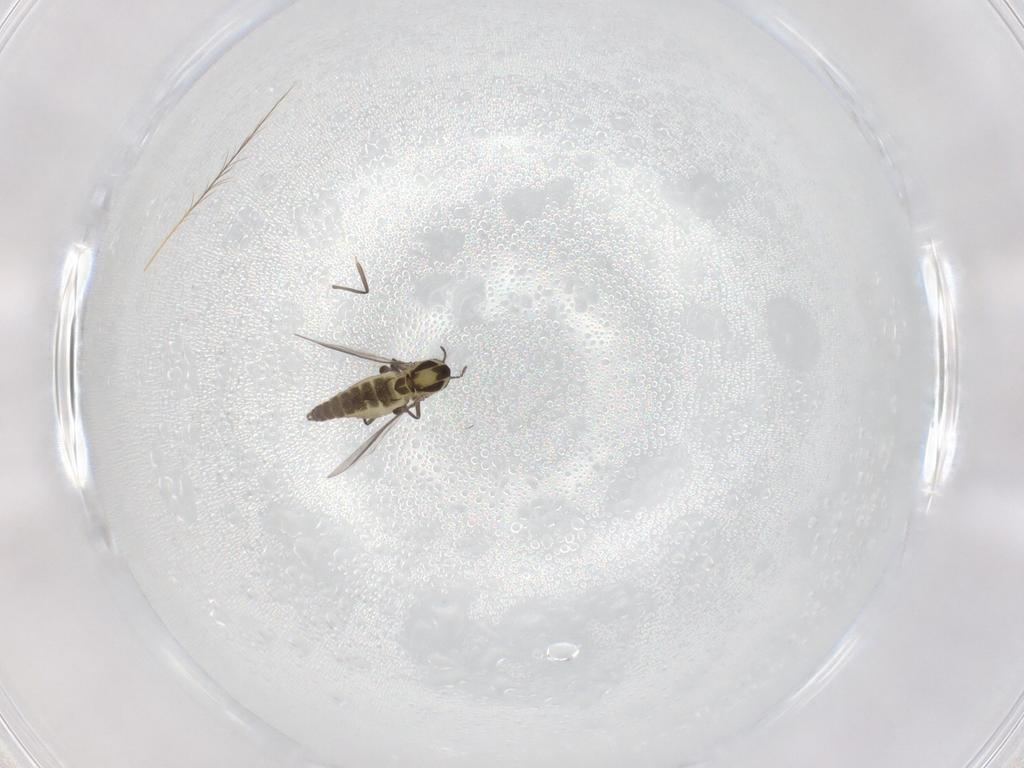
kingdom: Animalia
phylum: Arthropoda
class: Insecta
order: Diptera
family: Chironomidae
